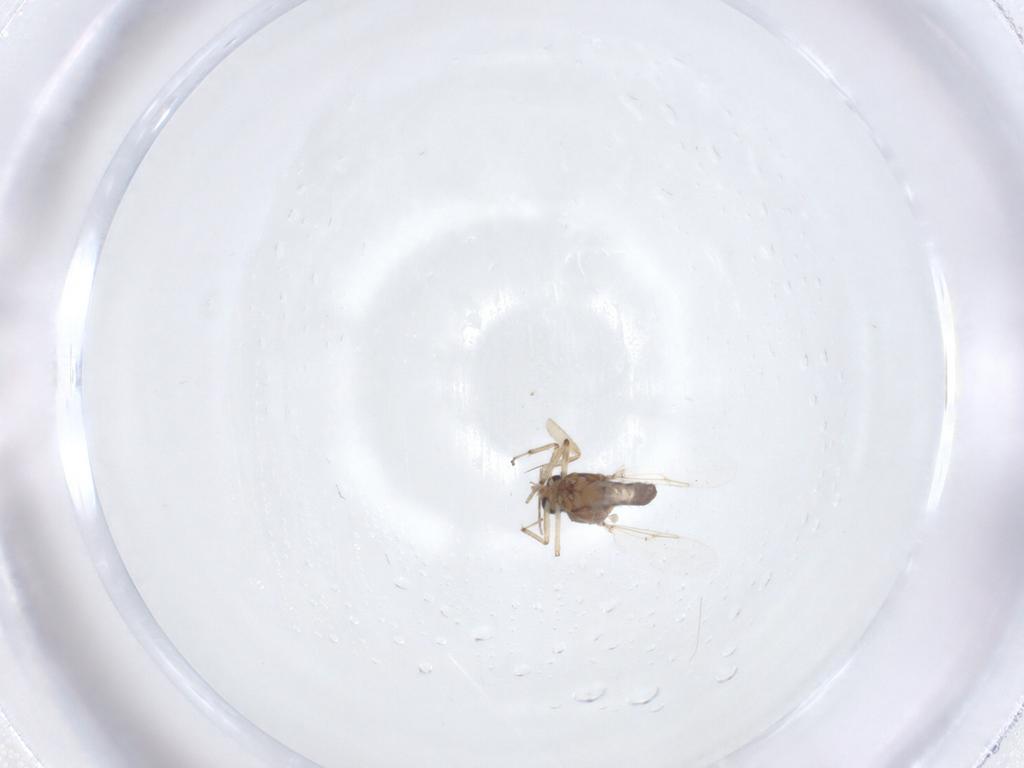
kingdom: Animalia
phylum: Arthropoda
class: Insecta
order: Diptera
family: Ceratopogonidae
